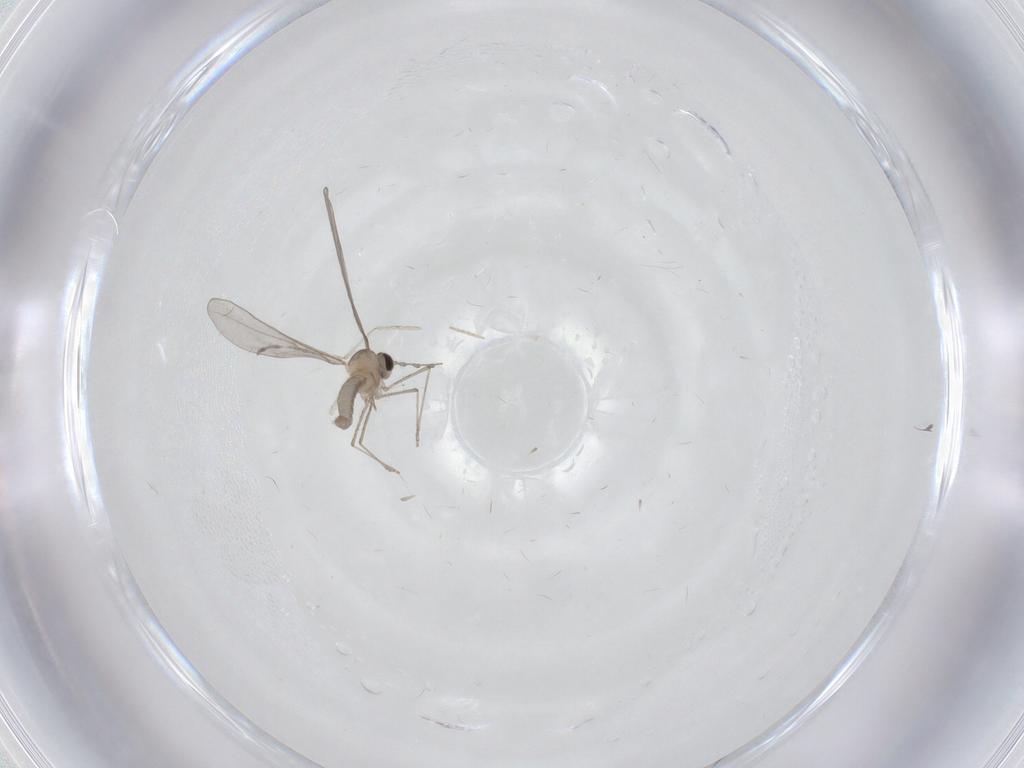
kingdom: Animalia
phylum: Arthropoda
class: Insecta
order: Diptera
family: Cecidomyiidae
